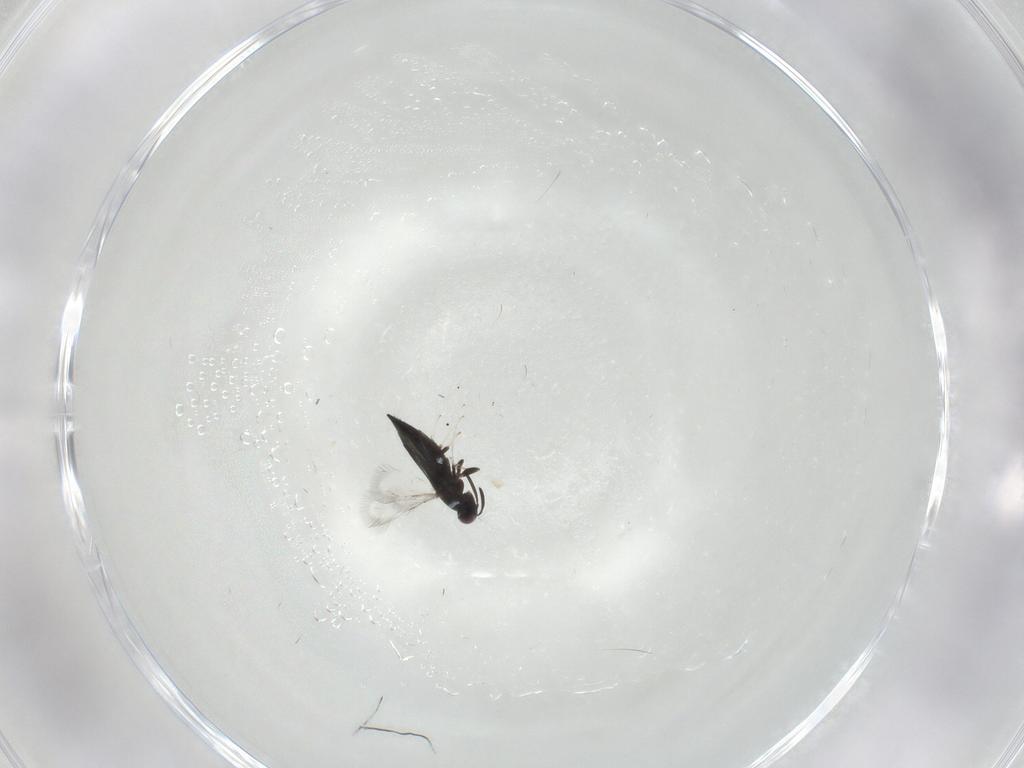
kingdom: Animalia
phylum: Arthropoda
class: Insecta
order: Hymenoptera
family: Signiphoridae
